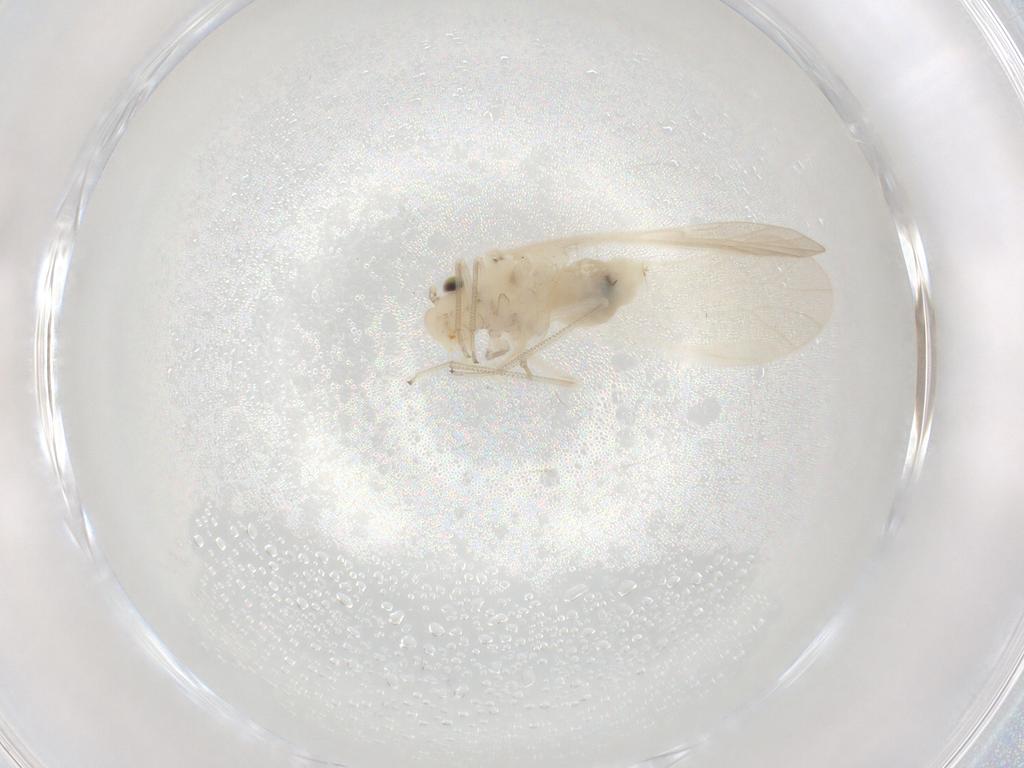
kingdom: Animalia
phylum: Arthropoda
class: Insecta
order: Psocodea
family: Caeciliusidae
